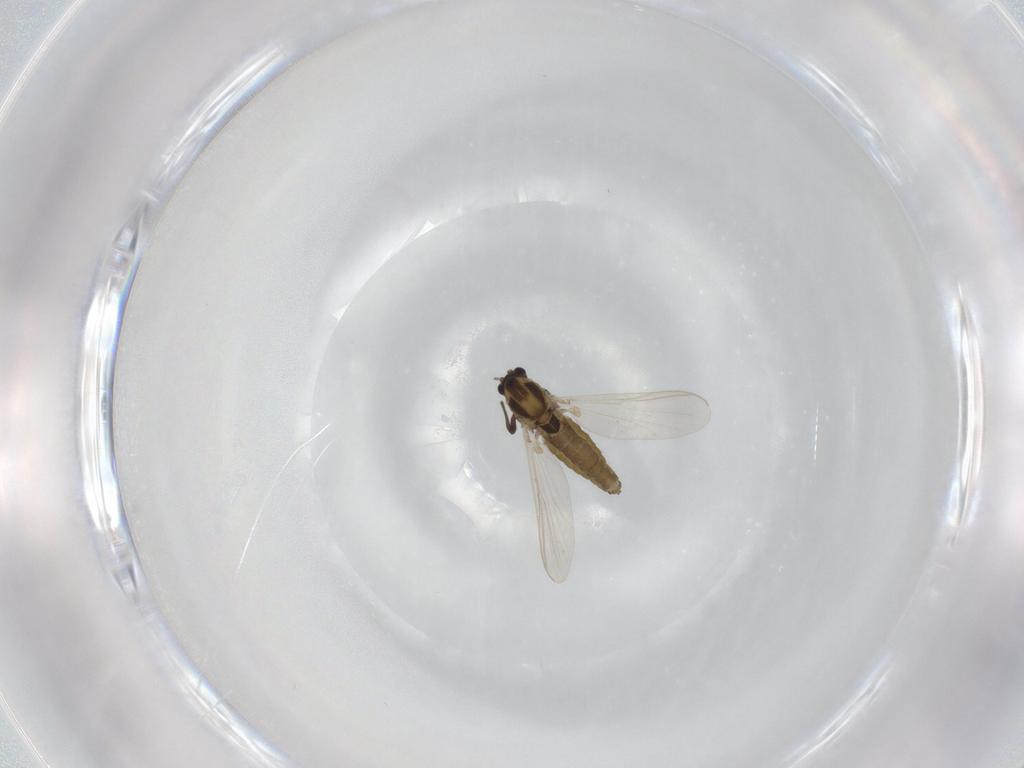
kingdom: Animalia
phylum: Arthropoda
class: Insecta
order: Diptera
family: Chironomidae
